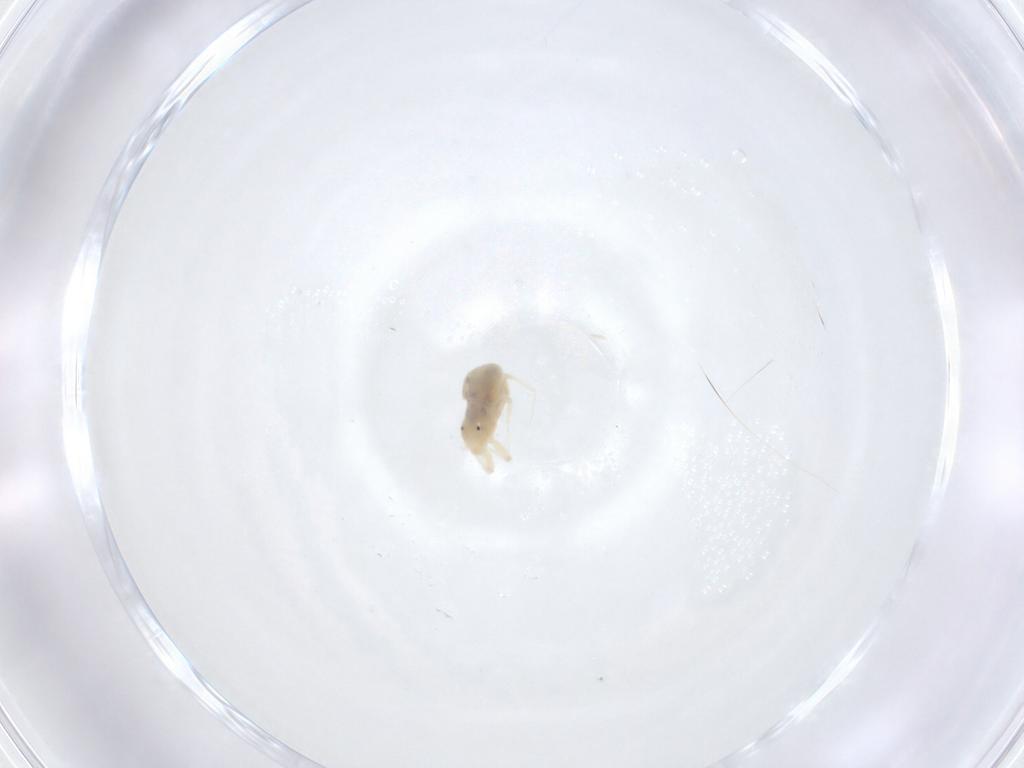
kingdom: Animalia
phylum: Arthropoda
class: Arachnida
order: Trombidiformes
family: Anystidae
